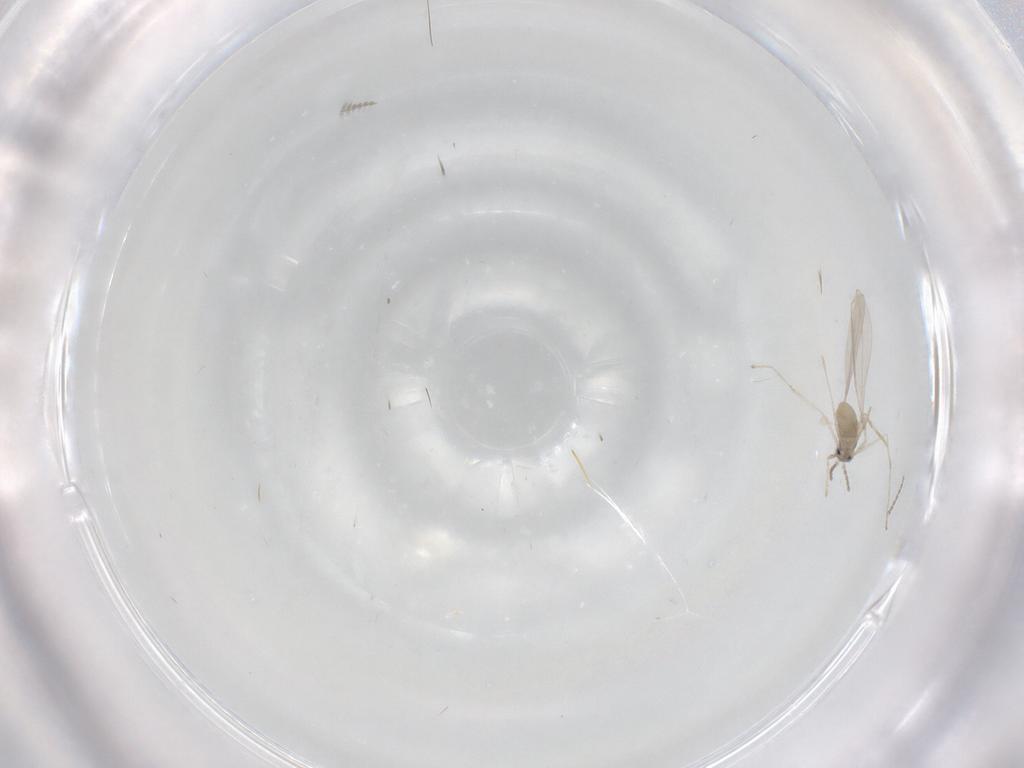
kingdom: Animalia
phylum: Arthropoda
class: Insecta
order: Diptera
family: Cecidomyiidae
